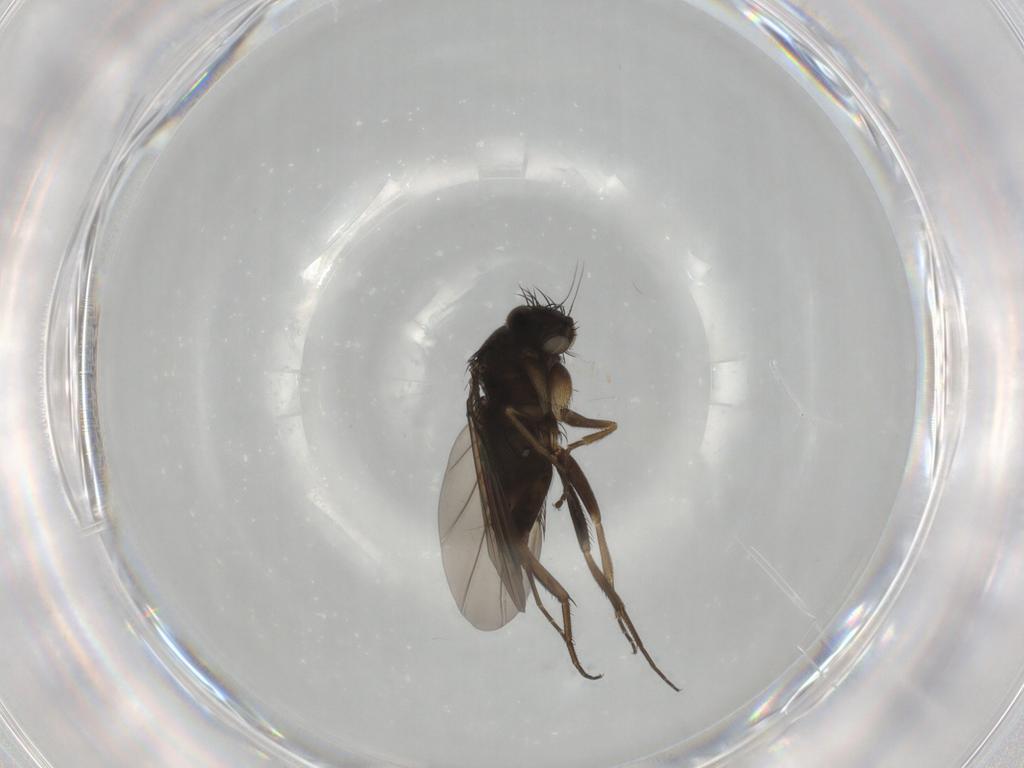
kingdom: Animalia
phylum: Arthropoda
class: Insecta
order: Diptera
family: Phoridae
